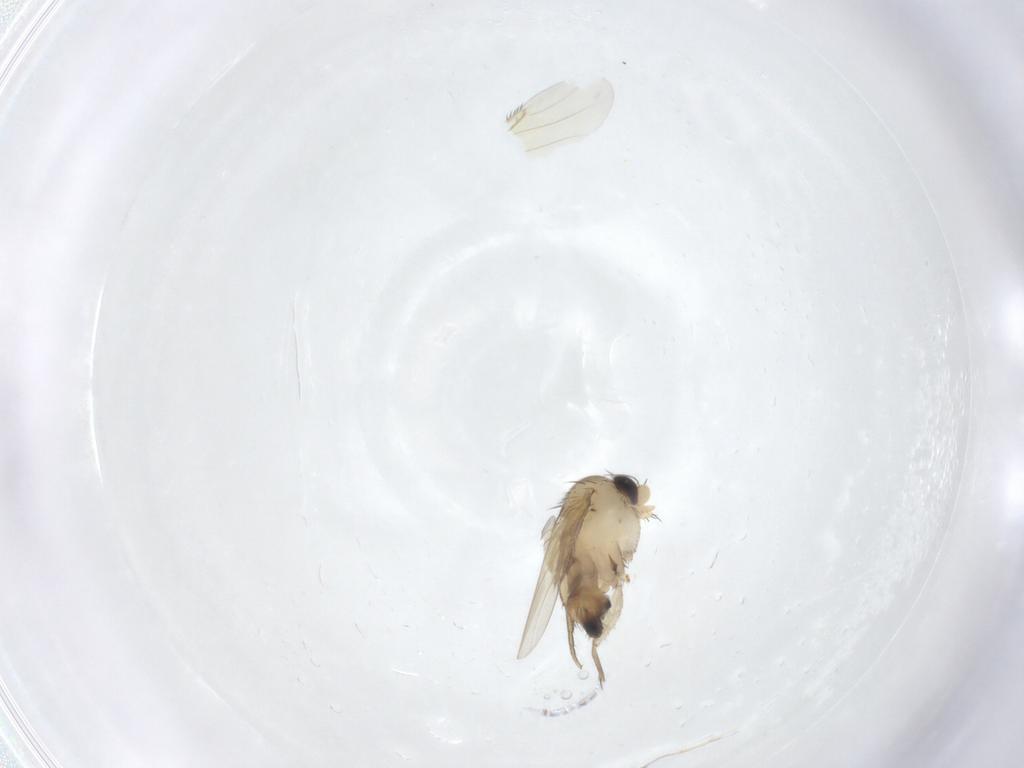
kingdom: Animalia
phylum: Arthropoda
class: Insecta
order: Diptera
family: Phoridae
